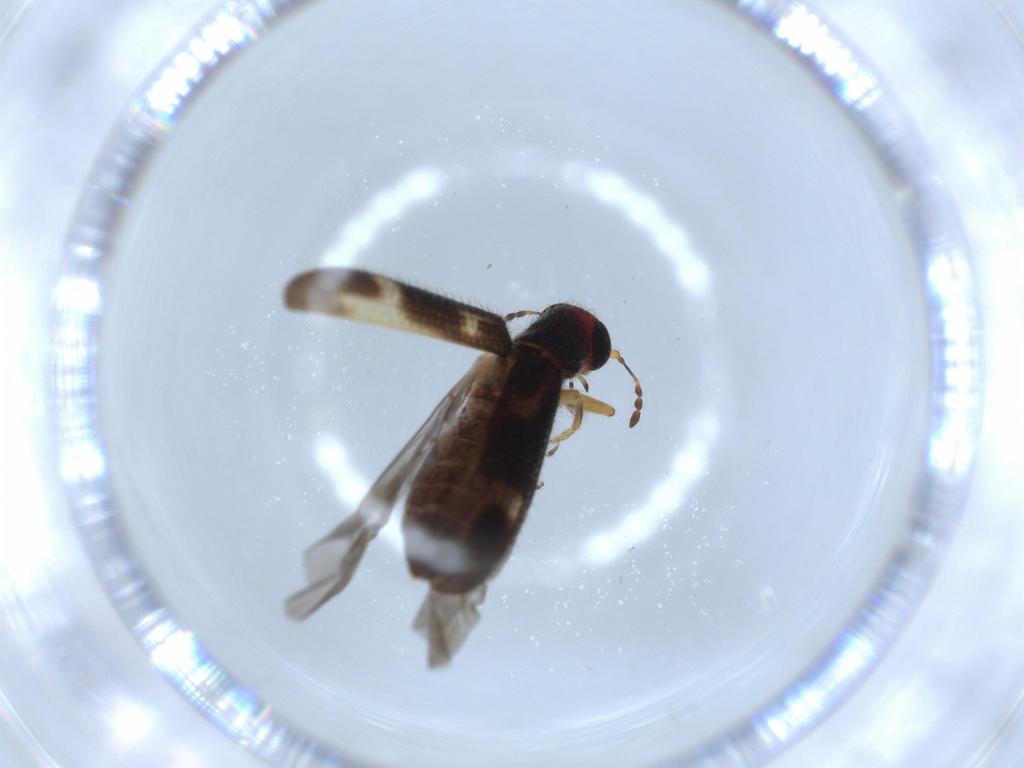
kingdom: Animalia
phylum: Arthropoda
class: Insecta
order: Coleoptera
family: Cleridae
